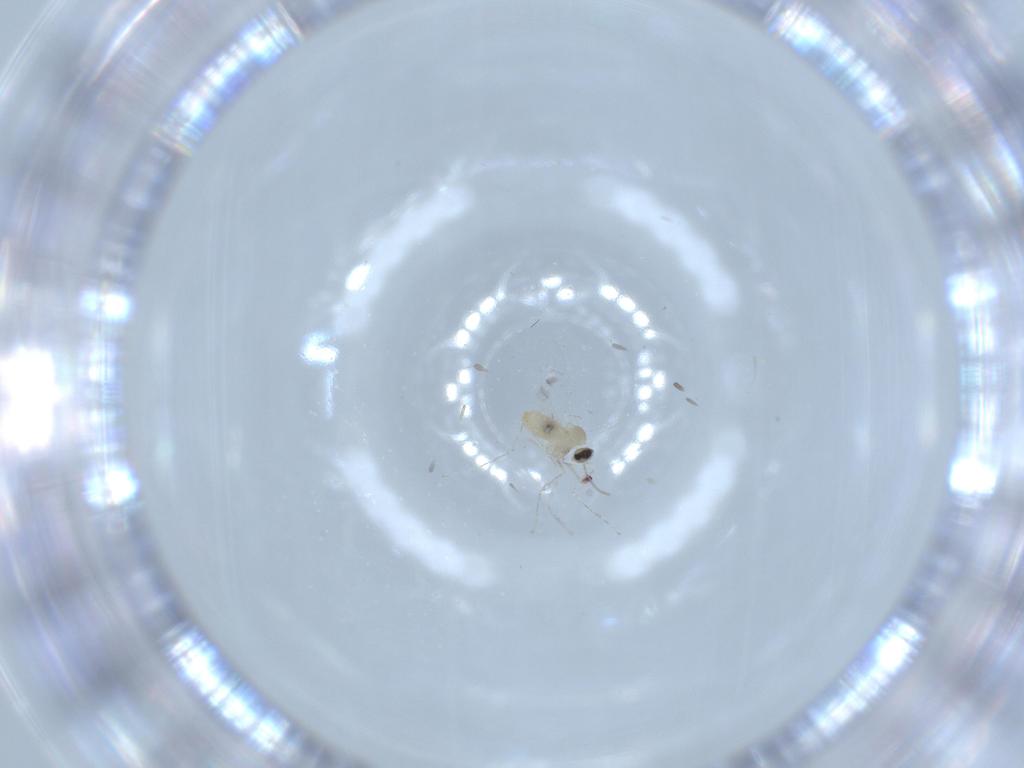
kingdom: Animalia
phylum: Arthropoda
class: Insecta
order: Diptera
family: Cecidomyiidae
